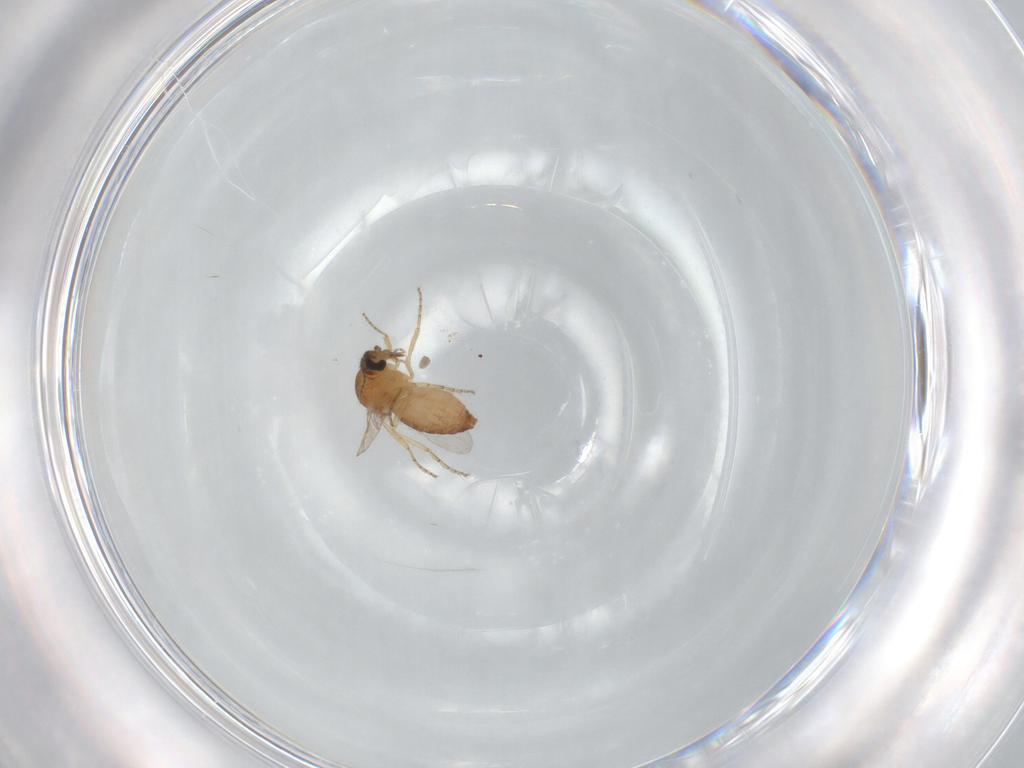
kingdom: Animalia
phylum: Arthropoda
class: Insecta
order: Diptera
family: Ceratopogonidae
